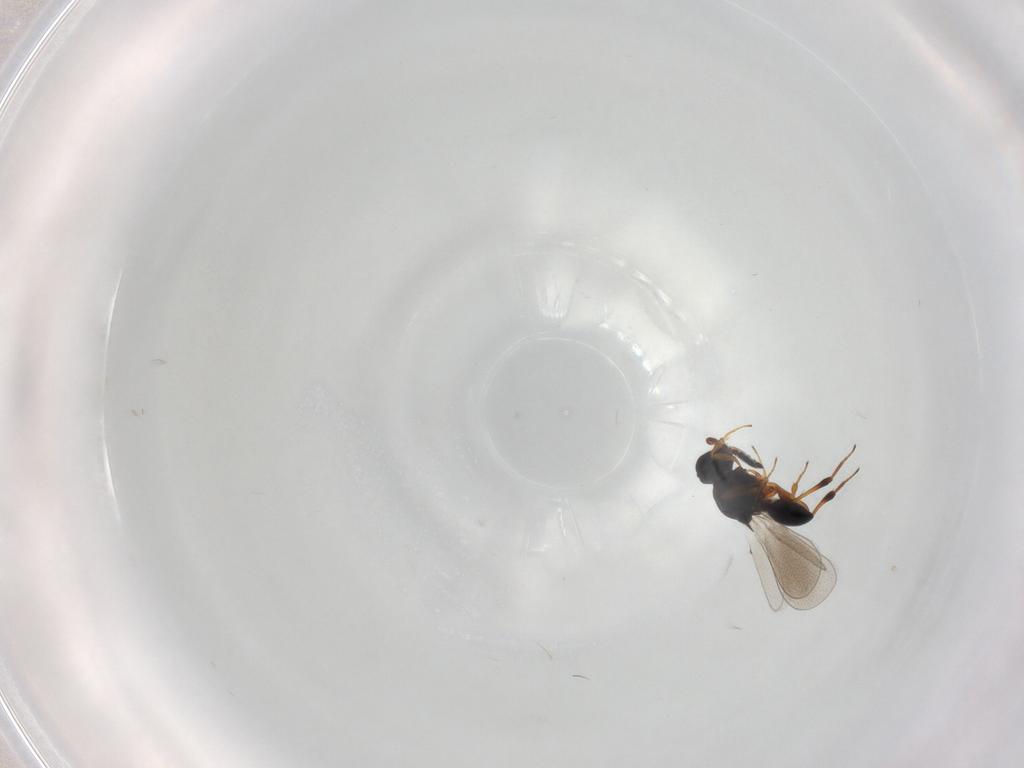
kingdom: Animalia
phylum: Arthropoda
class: Insecta
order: Hymenoptera
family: Platygastridae
